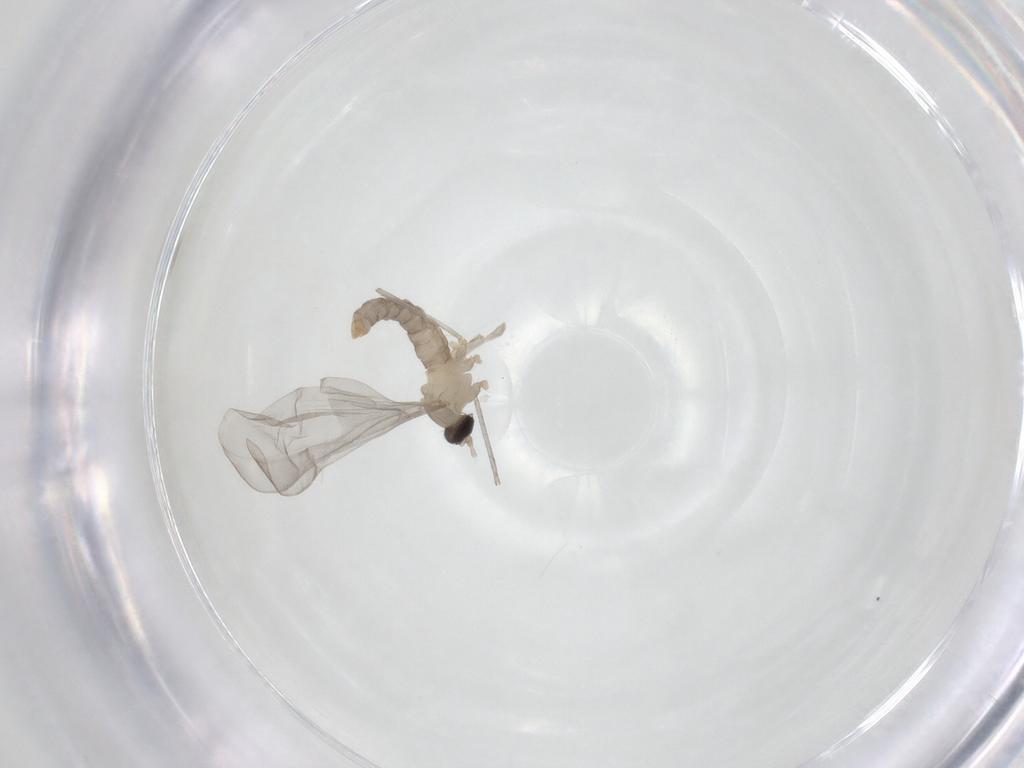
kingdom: Animalia
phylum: Arthropoda
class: Insecta
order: Diptera
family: Cecidomyiidae
